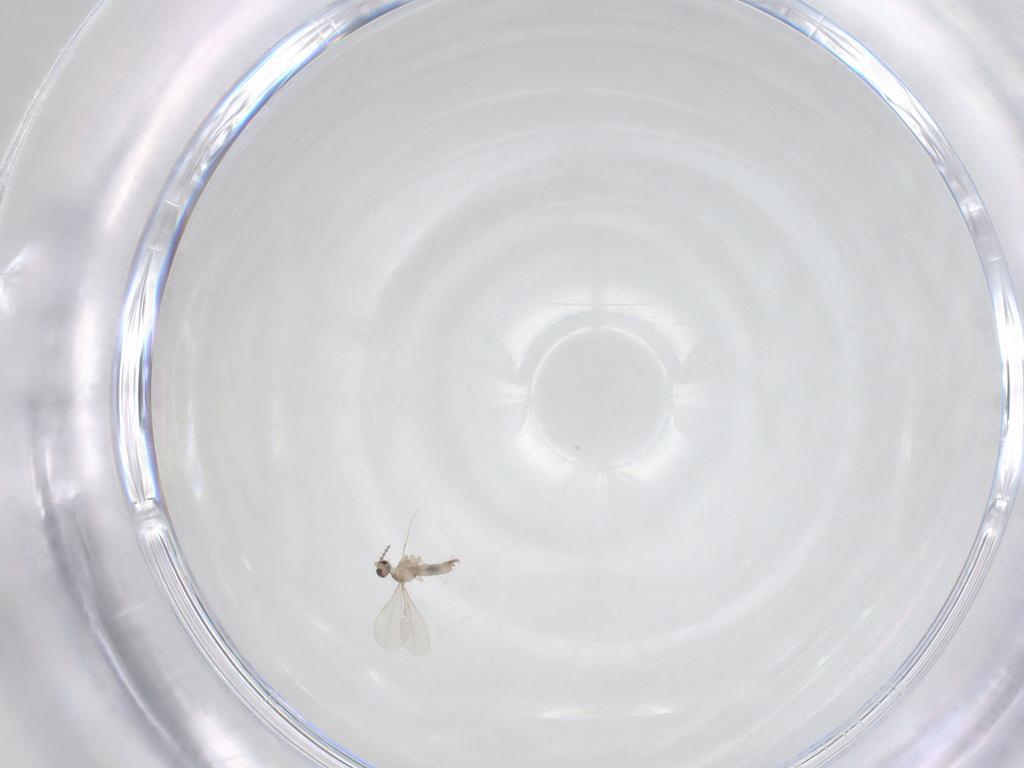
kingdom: Animalia
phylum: Arthropoda
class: Insecta
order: Diptera
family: Cecidomyiidae
